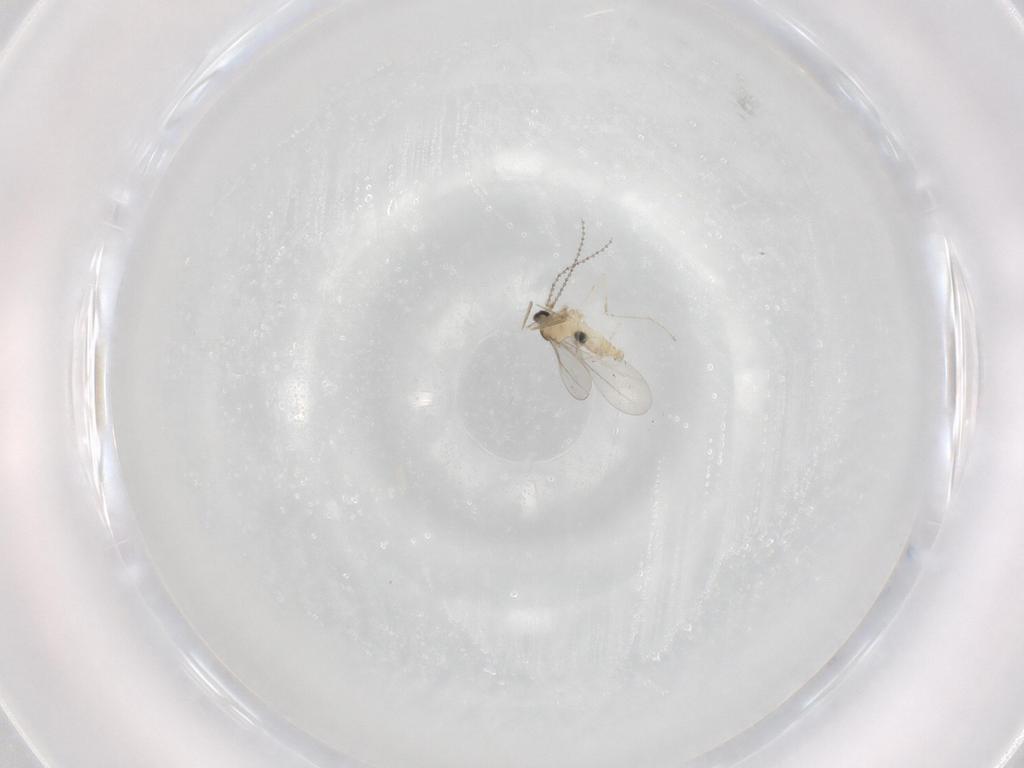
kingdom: Animalia
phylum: Arthropoda
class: Insecta
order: Diptera
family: Cecidomyiidae
